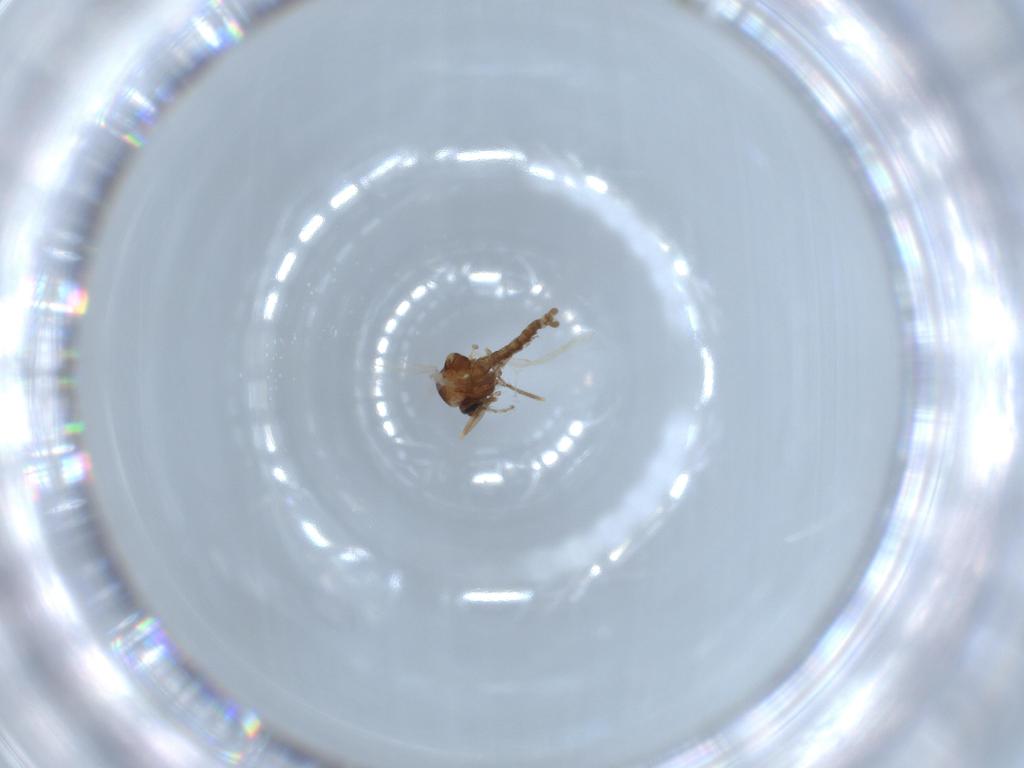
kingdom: Animalia
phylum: Arthropoda
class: Insecta
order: Diptera
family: Ceratopogonidae
